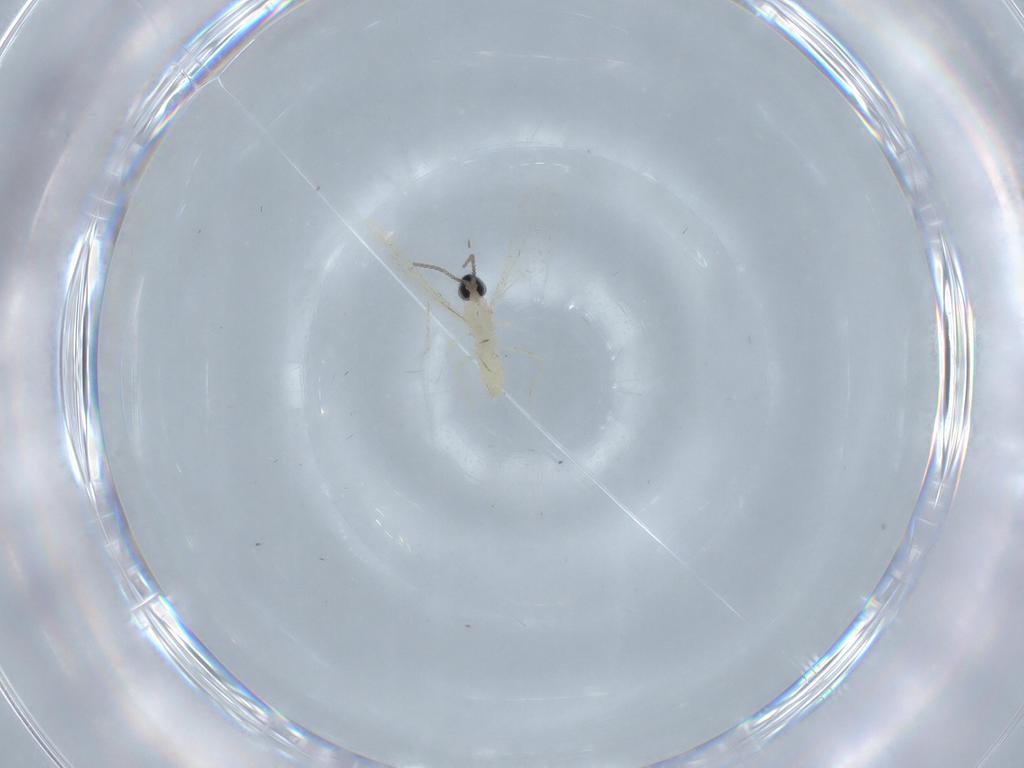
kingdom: Animalia
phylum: Arthropoda
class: Insecta
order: Diptera
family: Cecidomyiidae
